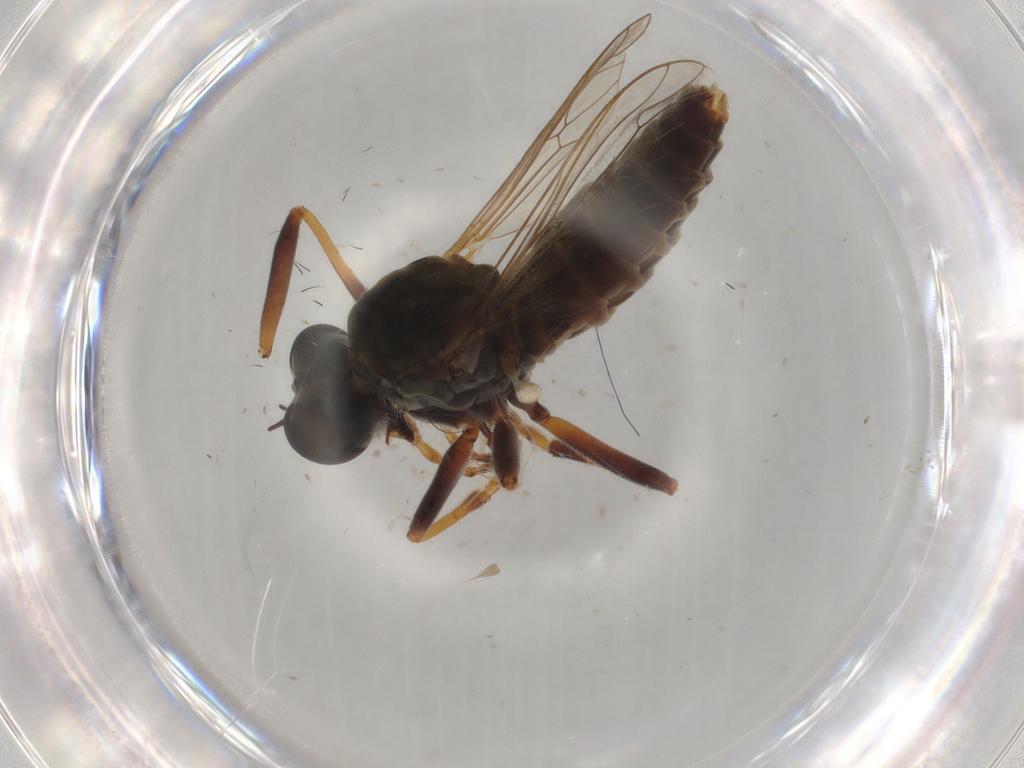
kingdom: Animalia
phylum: Arthropoda
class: Insecta
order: Diptera
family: Asilidae
